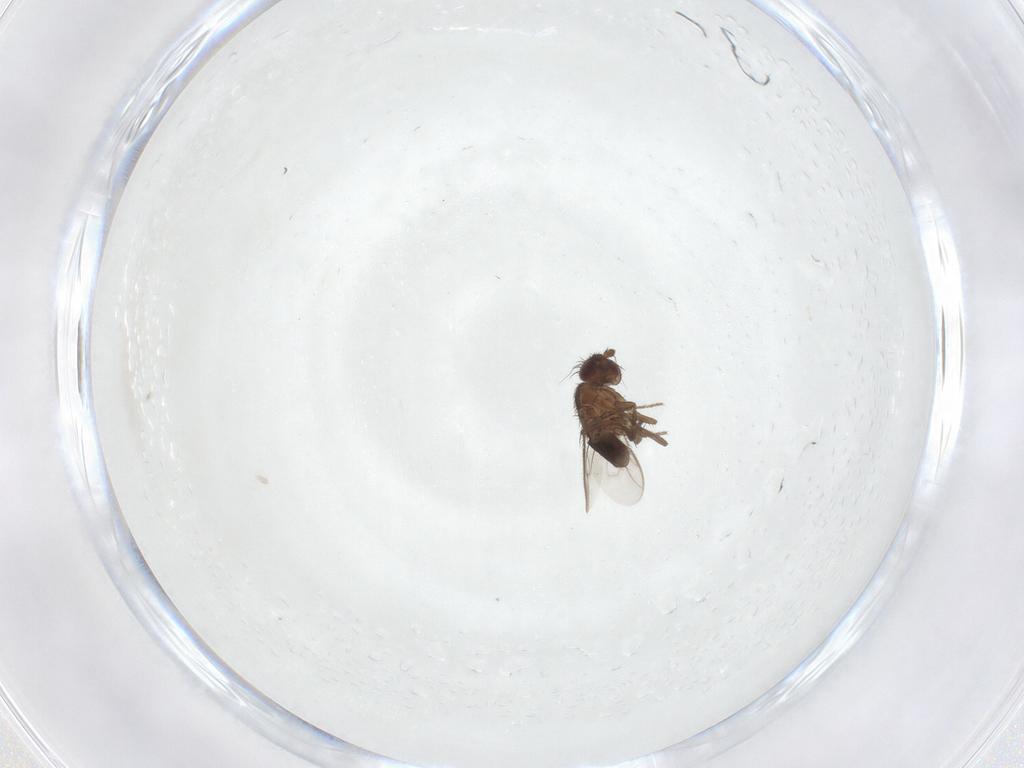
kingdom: Animalia
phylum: Arthropoda
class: Insecta
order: Diptera
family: Sphaeroceridae
